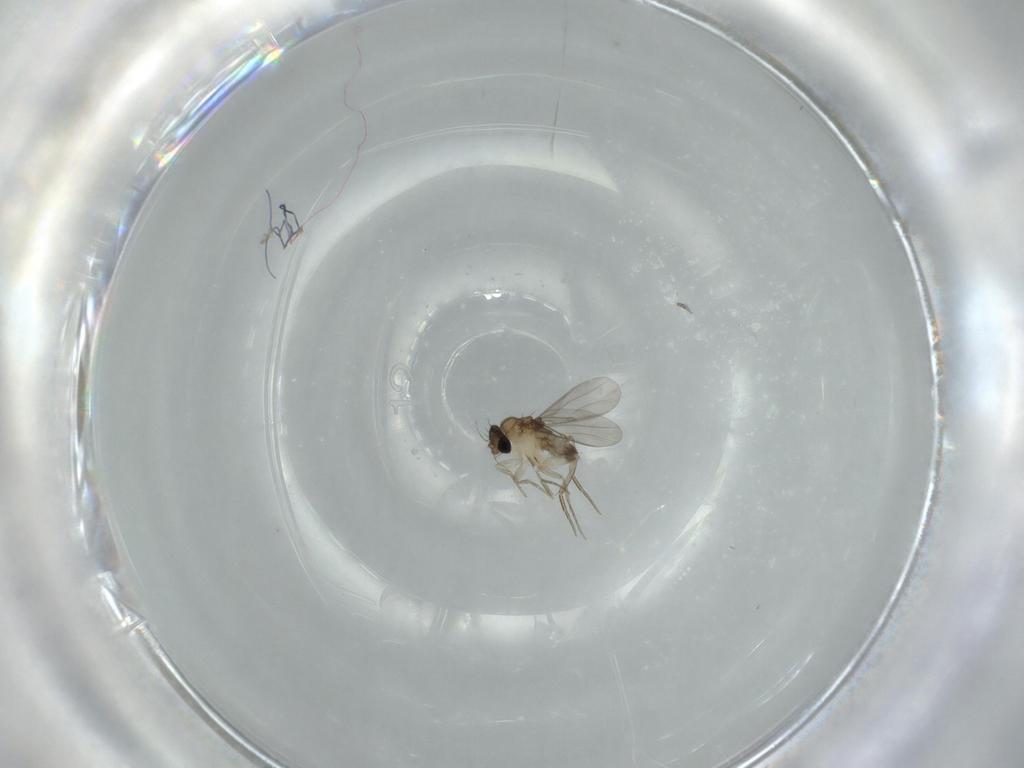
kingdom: Animalia
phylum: Arthropoda
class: Insecta
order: Diptera
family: Phoridae
